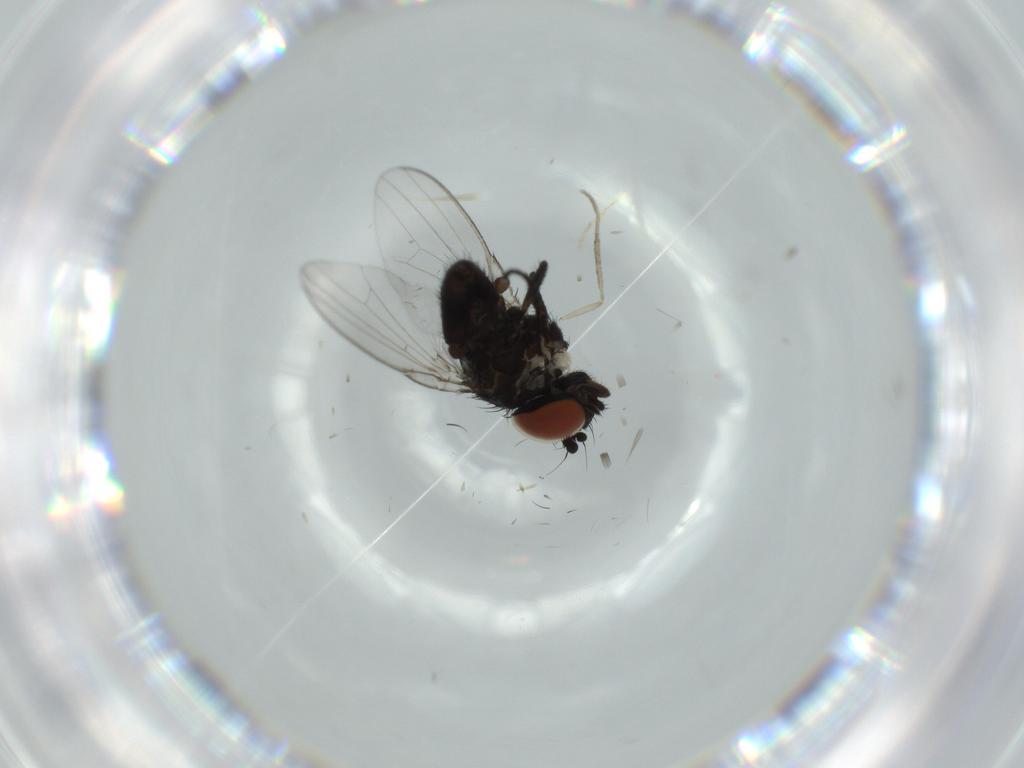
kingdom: Animalia
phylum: Arthropoda
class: Insecta
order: Diptera
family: Milichiidae
